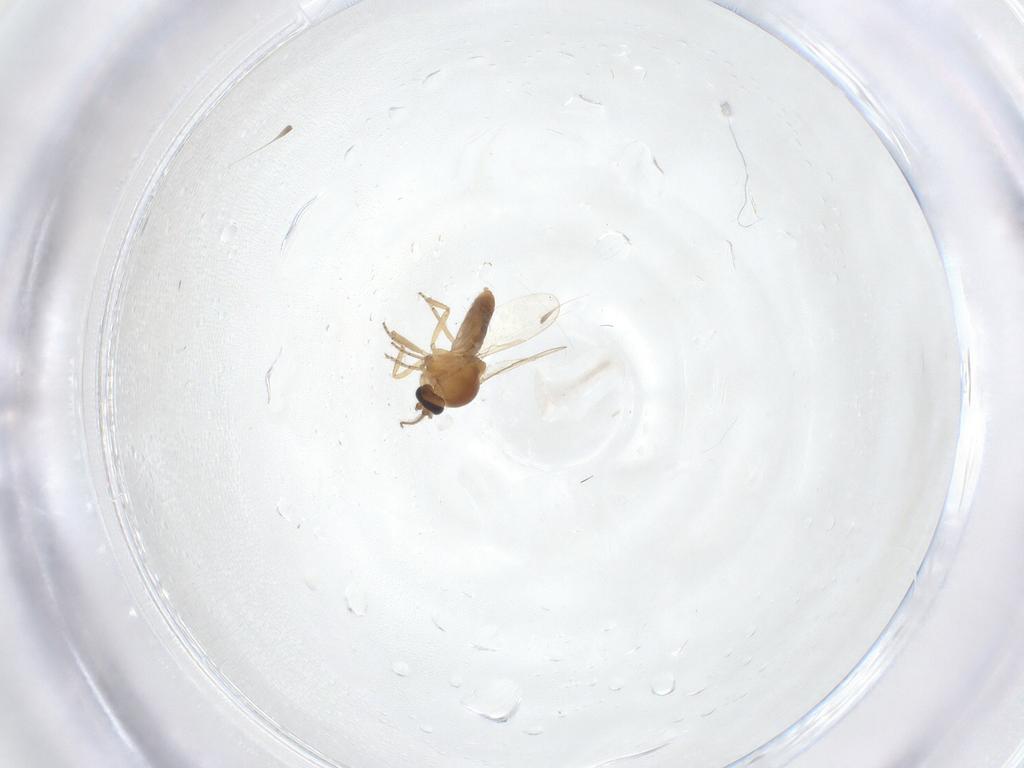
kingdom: Animalia
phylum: Arthropoda
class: Insecta
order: Diptera
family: Ceratopogonidae
